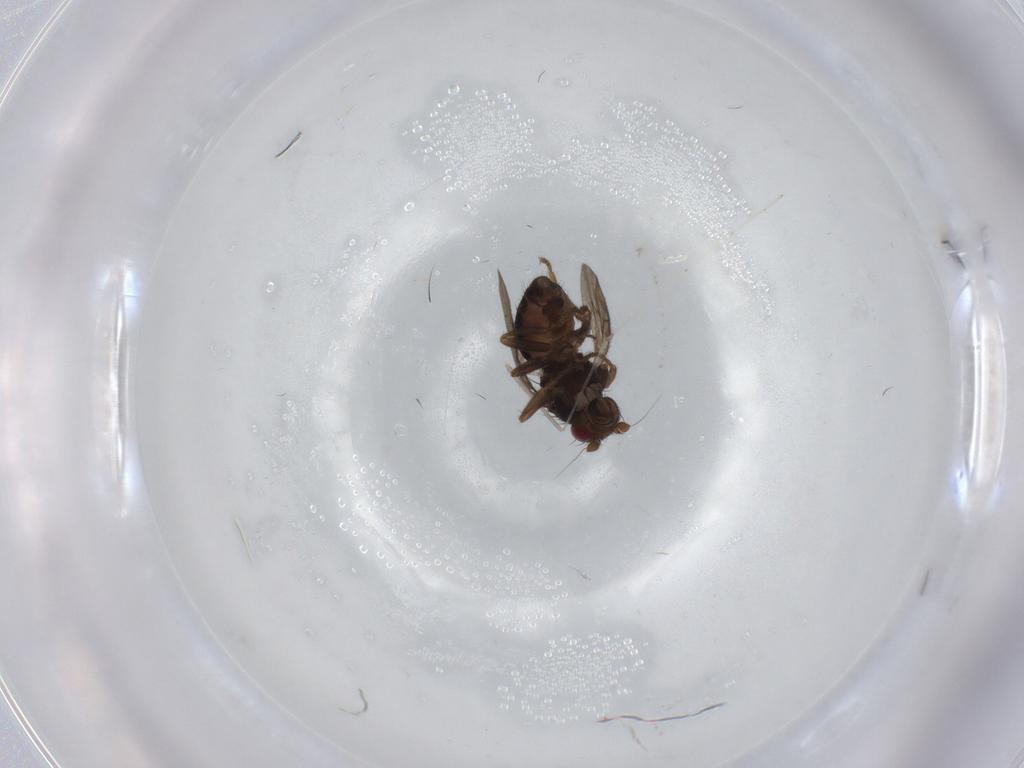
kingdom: Animalia
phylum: Arthropoda
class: Insecta
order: Diptera
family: Cecidomyiidae
